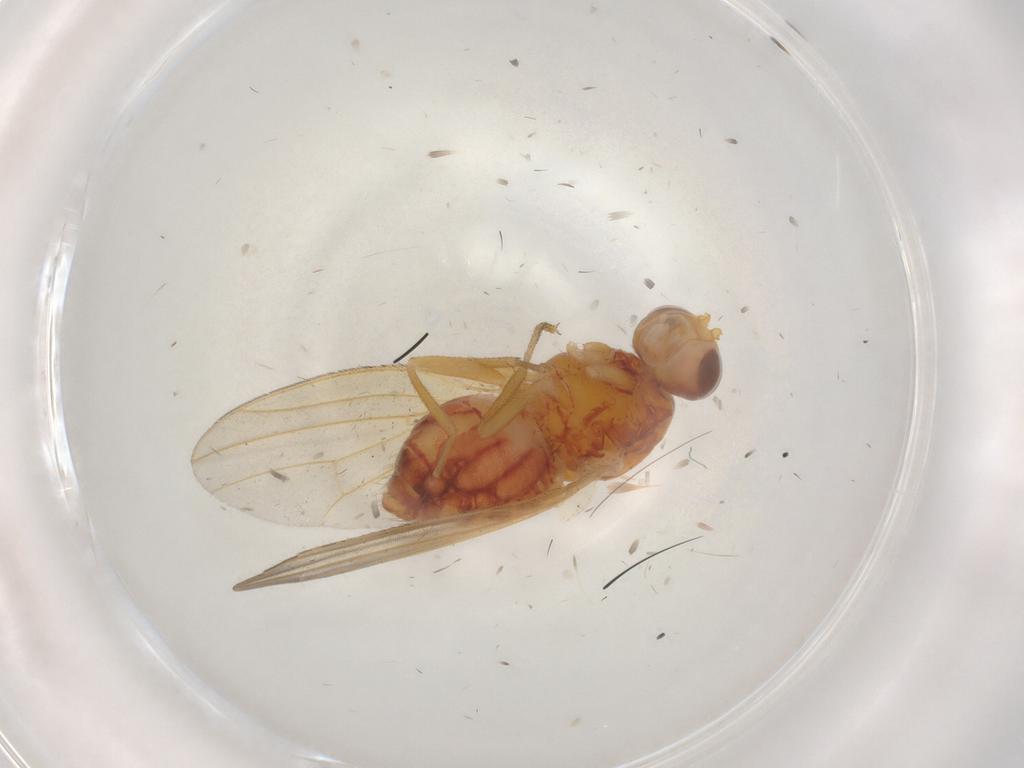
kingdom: Animalia
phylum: Arthropoda
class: Insecta
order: Diptera
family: Heleomyzidae
